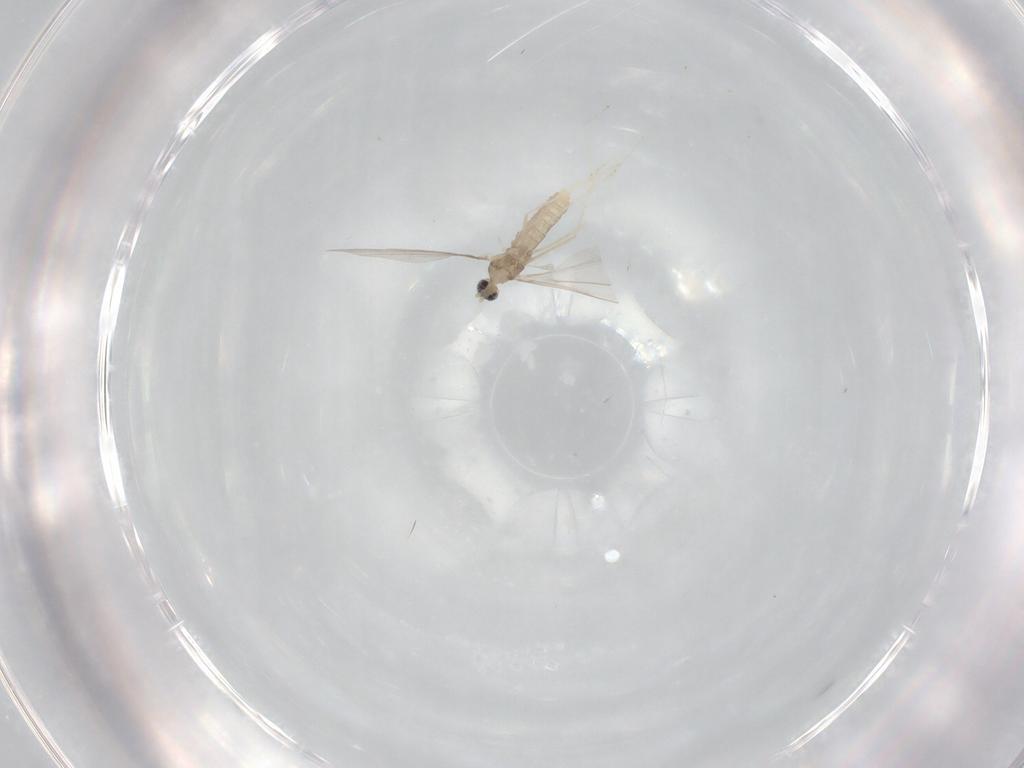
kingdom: Animalia
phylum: Arthropoda
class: Insecta
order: Diptera
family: Cecidomyiidae
